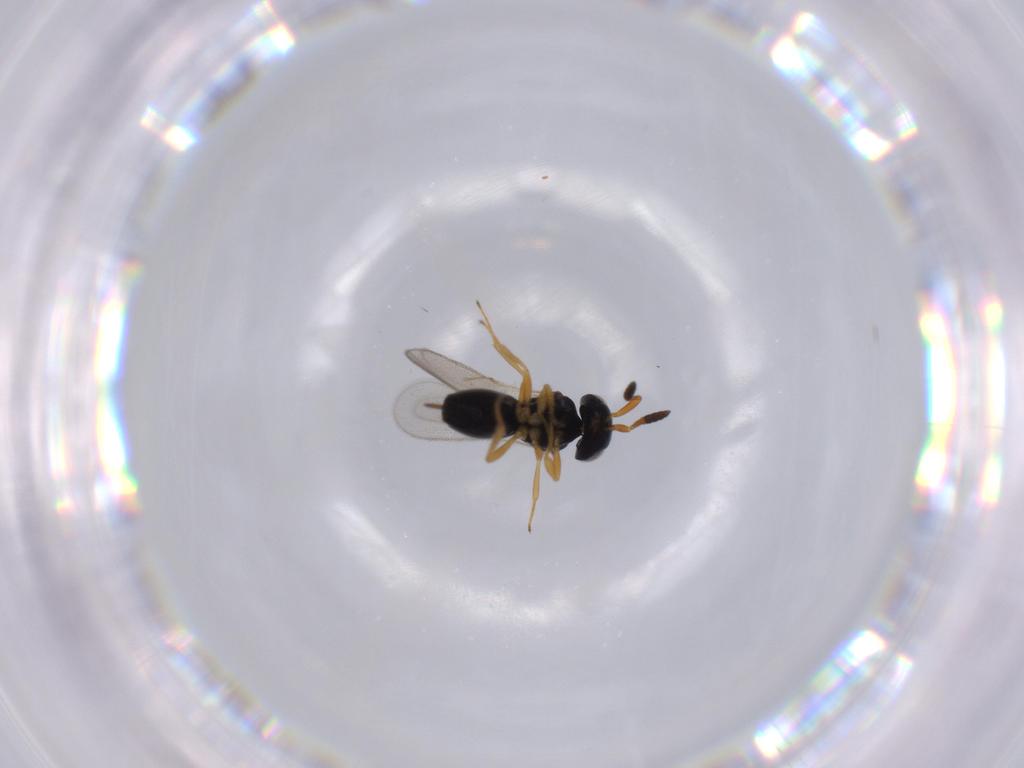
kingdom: Animalia
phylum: Arthropoda
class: Insecta
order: Hymenoptera
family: Scelionidae
